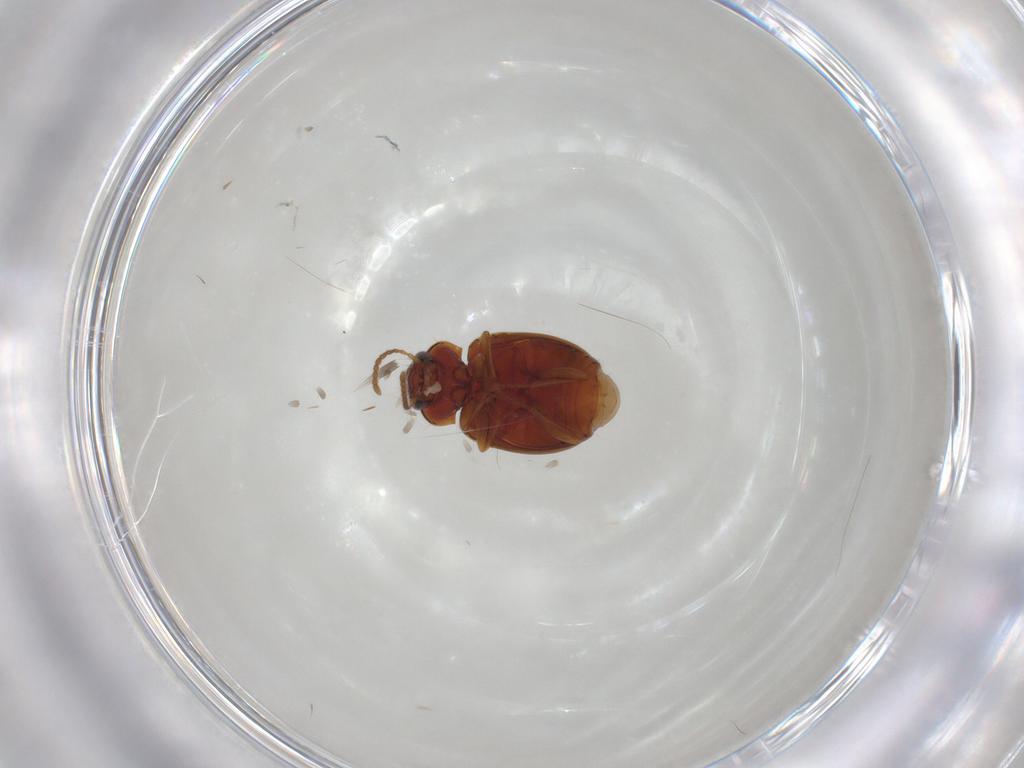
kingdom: Animalia
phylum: Arthropoda
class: Insecta
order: Coleoptera
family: Carabidae
